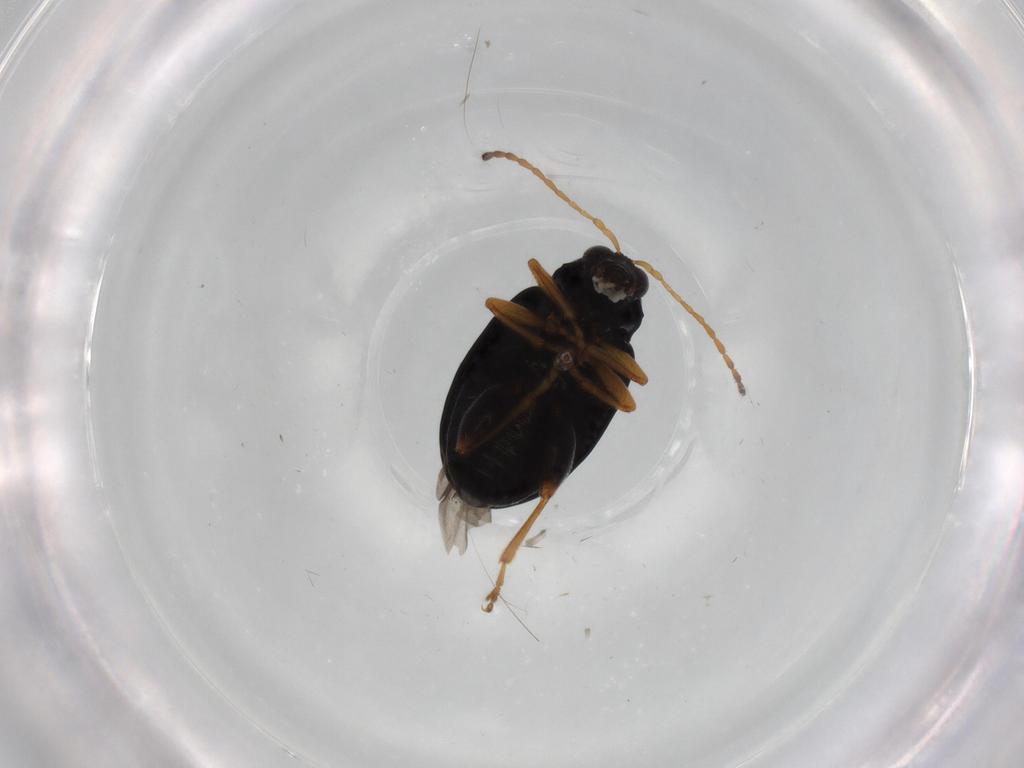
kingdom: Animalia
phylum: Arthropoda
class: Insecta
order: Coleoptera
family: Chrysomelidae
